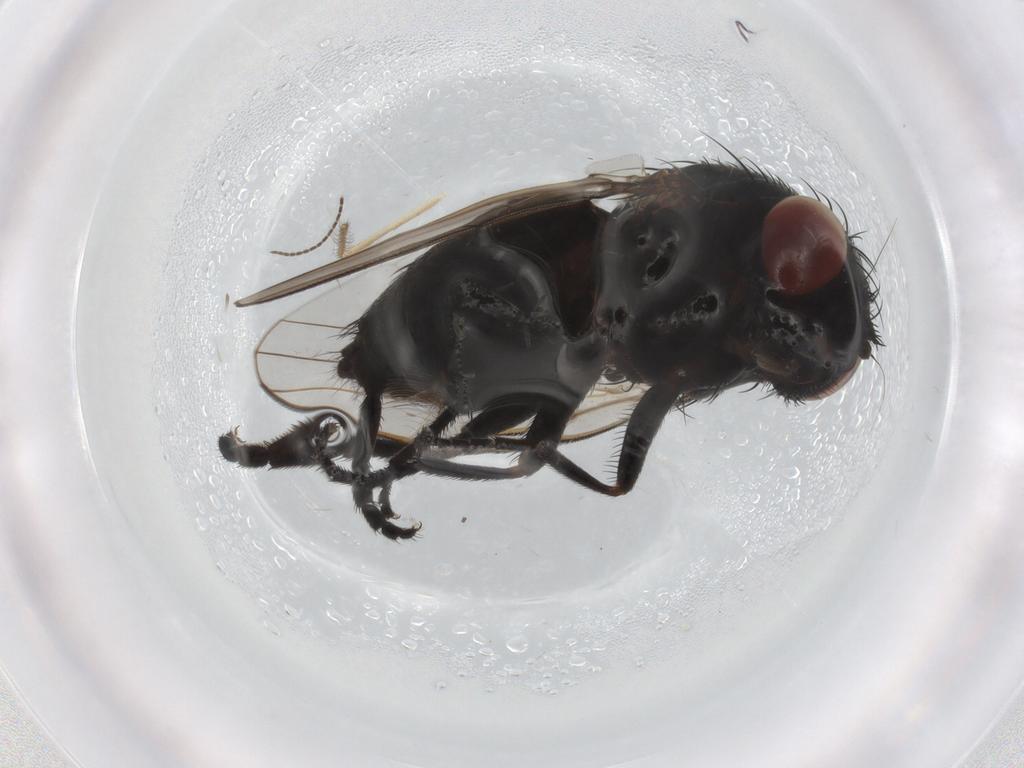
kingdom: Animalia
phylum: Arthropoda
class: Insecta
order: Diptera
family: Milichiidae
